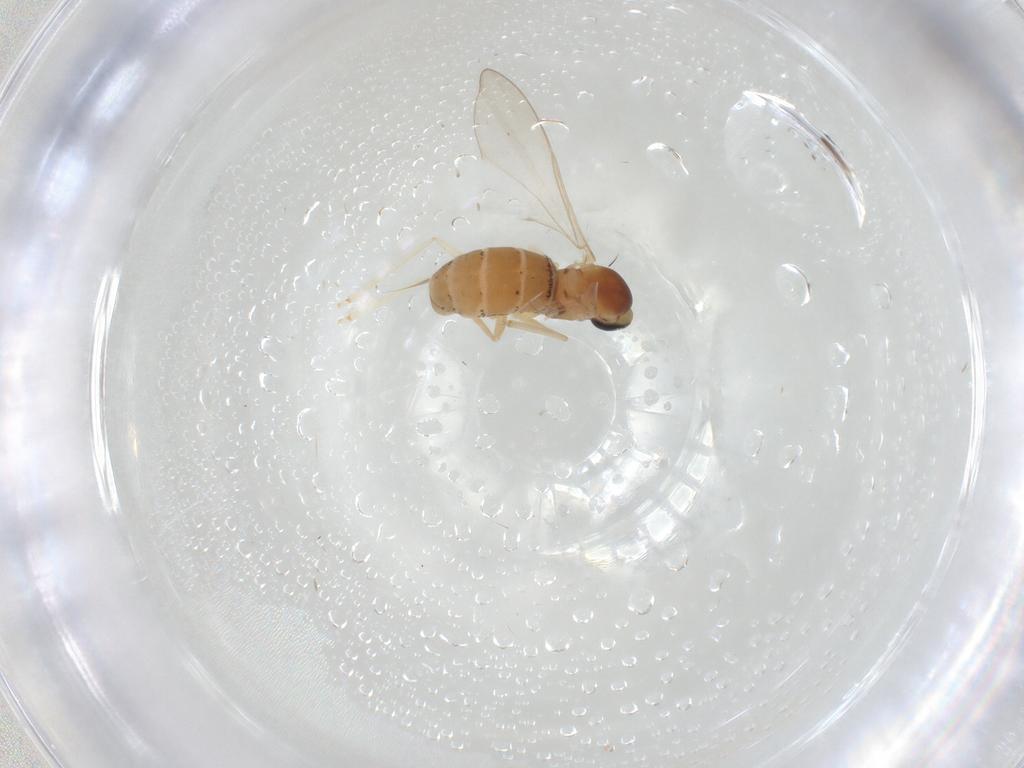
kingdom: Animalia
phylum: Arthropoda
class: Insecta
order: Diptera
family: Cecidomyiidae
